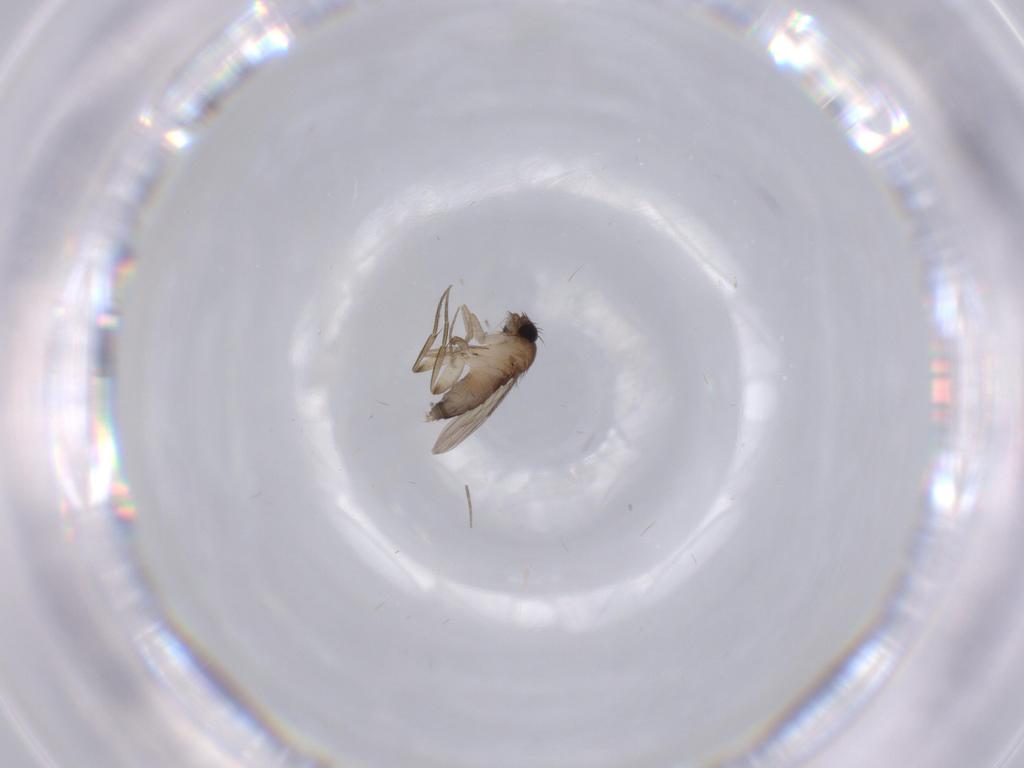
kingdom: Animalia
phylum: Arthropoda
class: Insecta
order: Diptera
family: Phoridae
